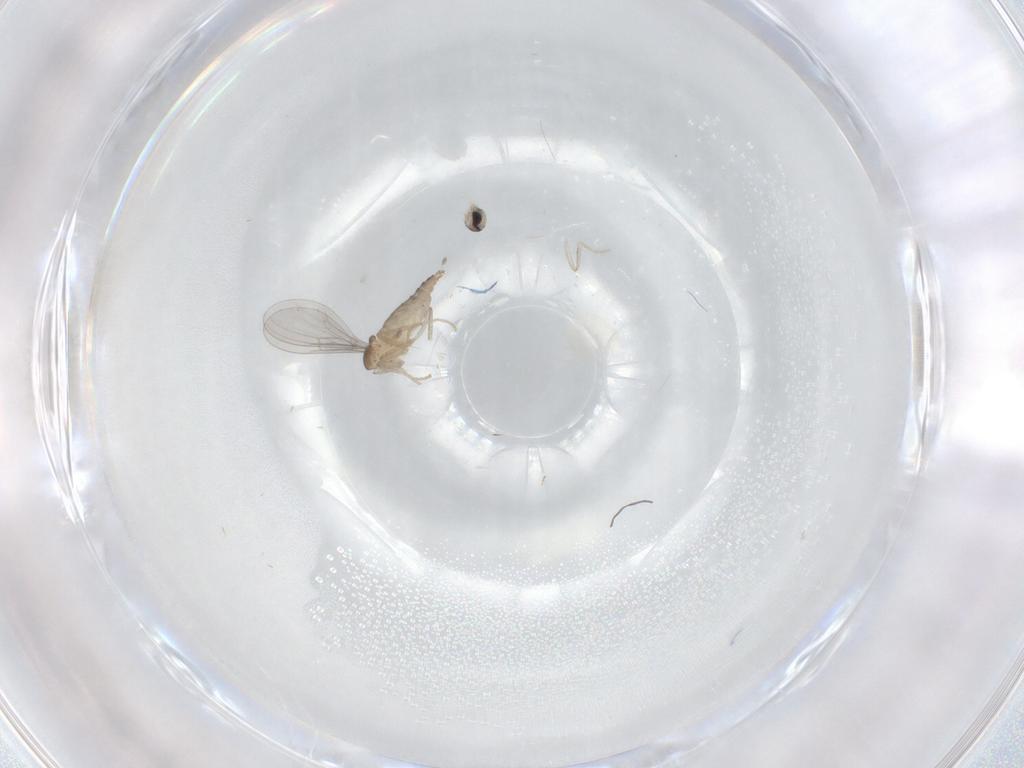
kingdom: Animalia
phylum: Arthropoda
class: Insecta
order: Diptera
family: Cecidomyiidae
